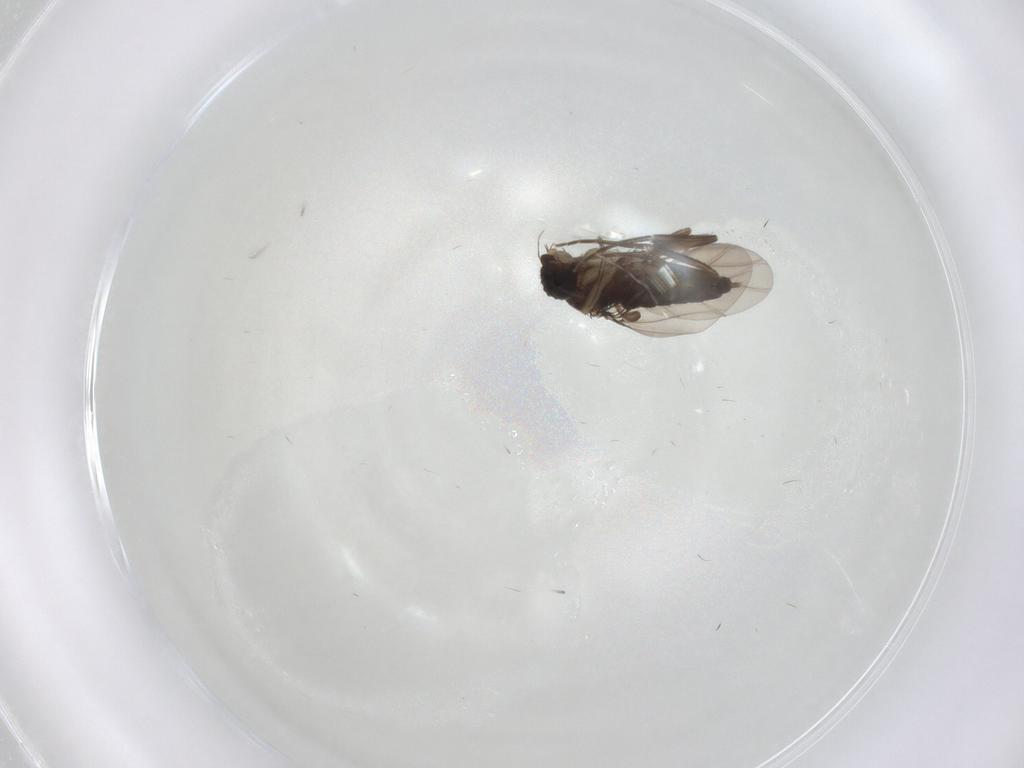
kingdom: Animalia
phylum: Arthropoda
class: Insecta
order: Diptera
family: Phoridae
